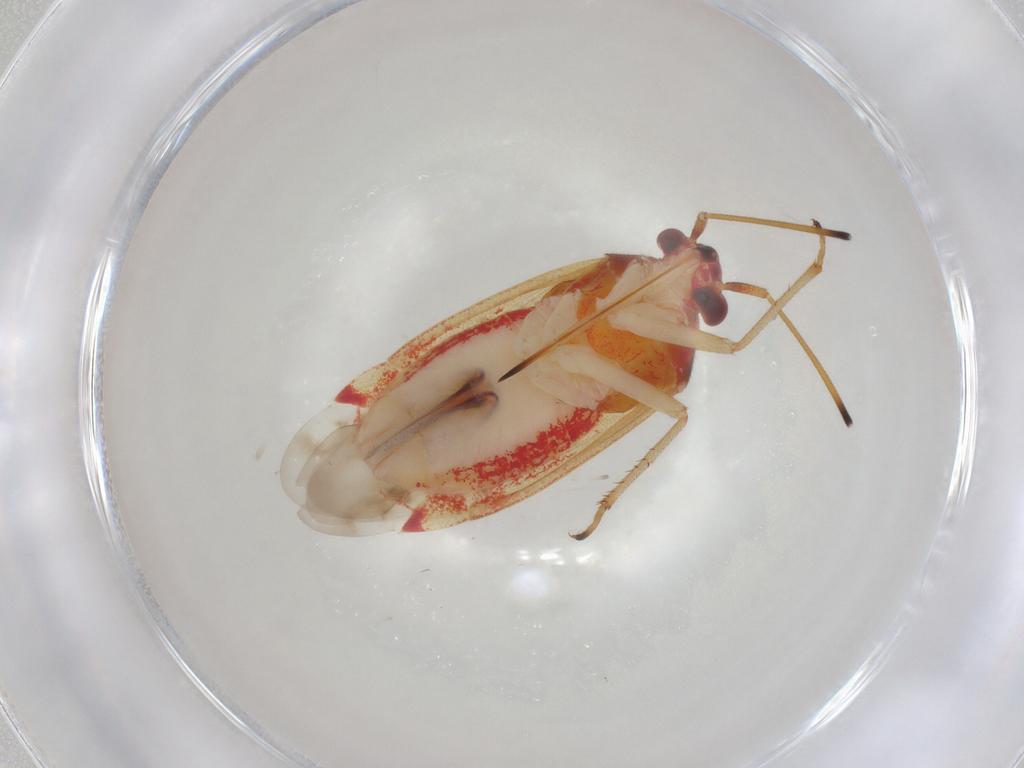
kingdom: Animalia
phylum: Arthropoda
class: Insecta
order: Hemiptera
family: Miridae
